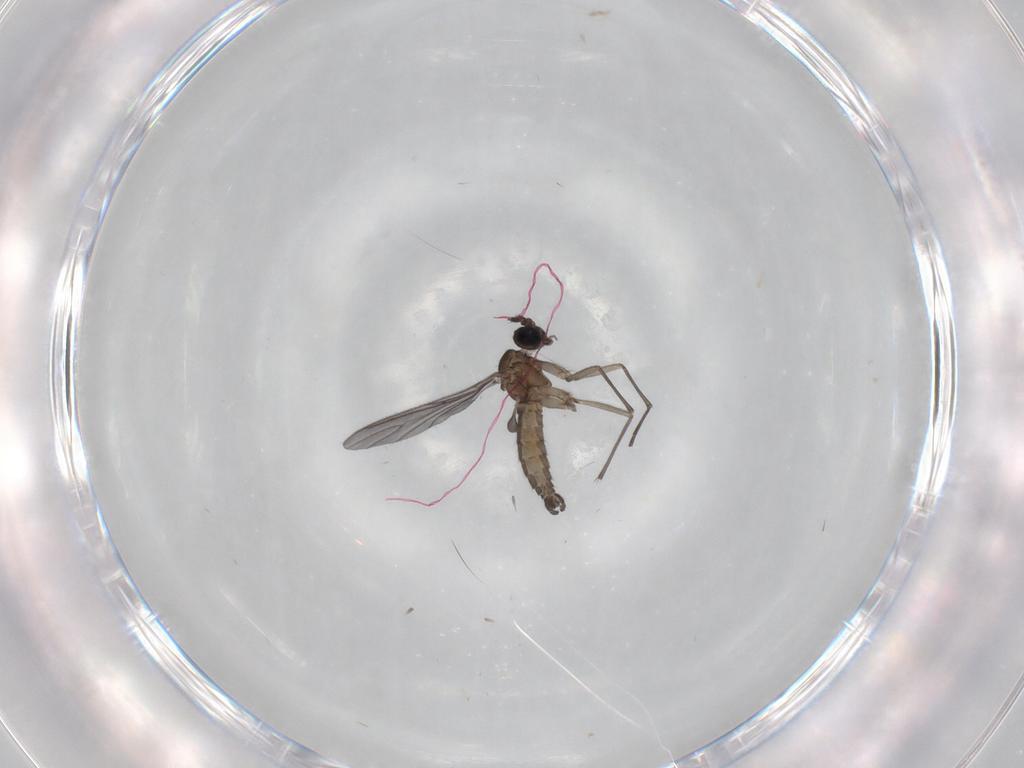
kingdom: Animalia
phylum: Arthropoda
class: Insecta
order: Diptera
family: Sciaridae
